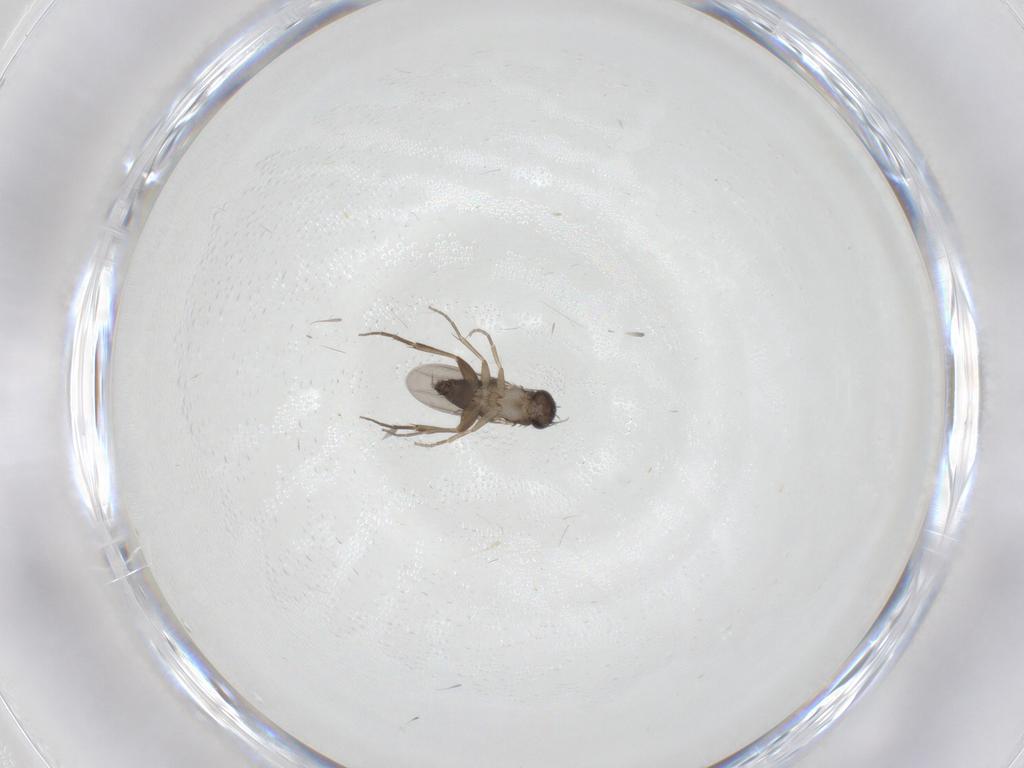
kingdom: Animalia
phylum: Arthropoda
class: Insecta
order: Diptera
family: Phoridae
